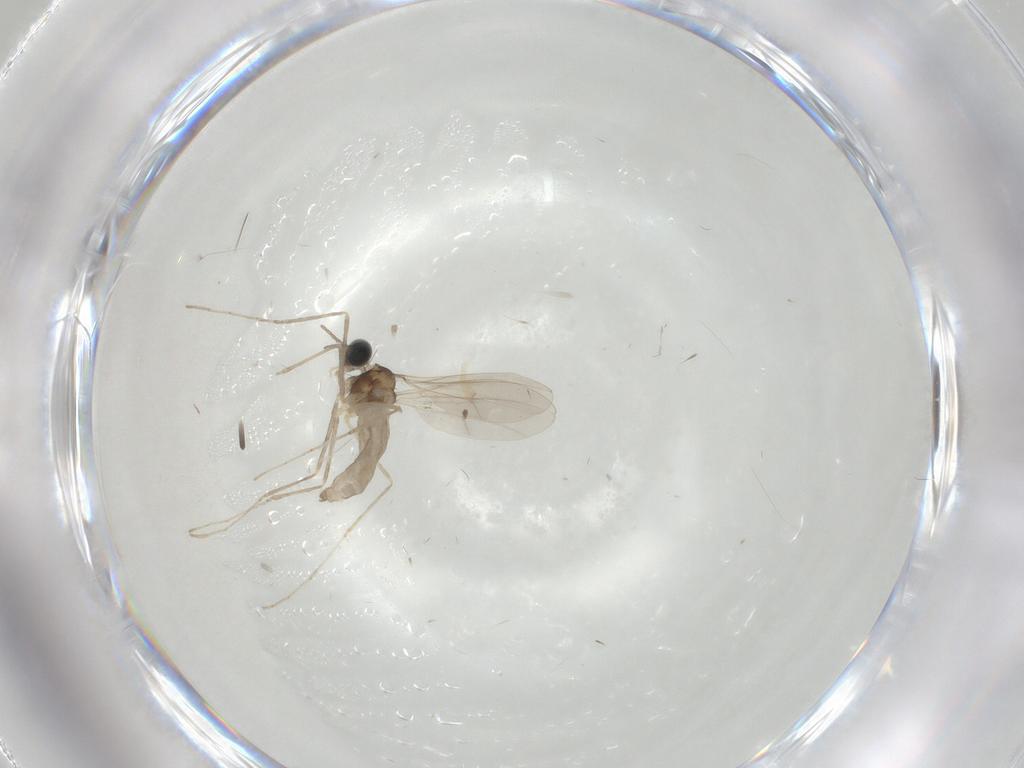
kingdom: Animalia
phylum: Arthropoda
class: Insecta
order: Diptera
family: Cecidomyiidae
